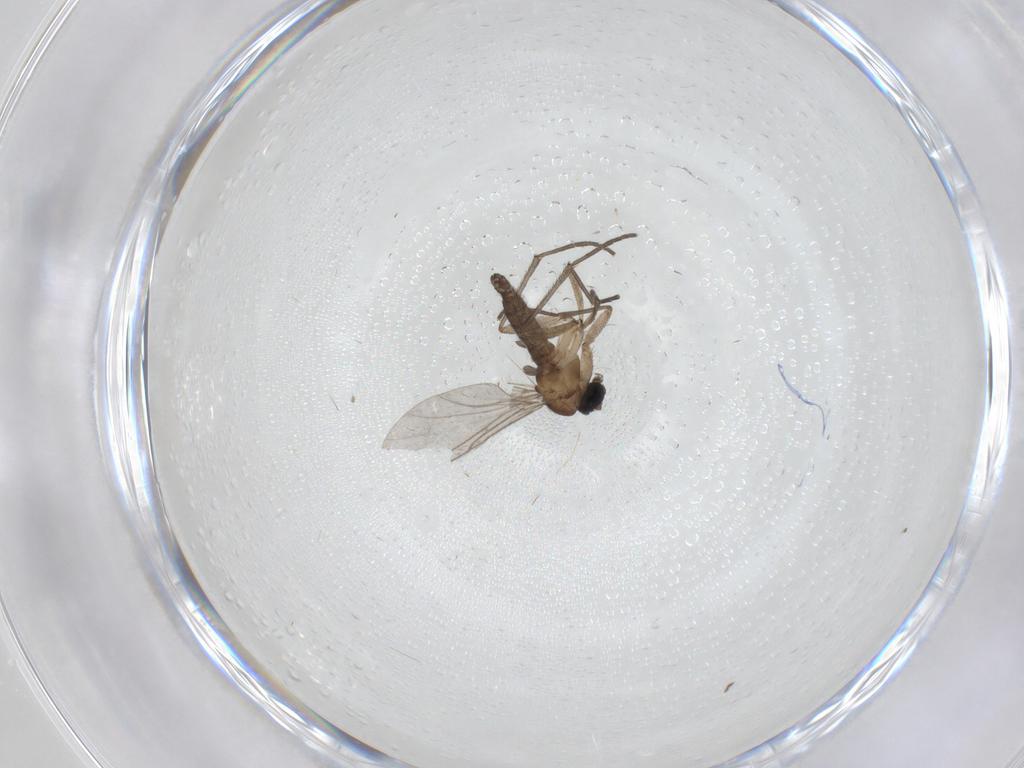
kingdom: Animalia
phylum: Arthropoda
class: Insecta
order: Diptera
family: Sciaridae
